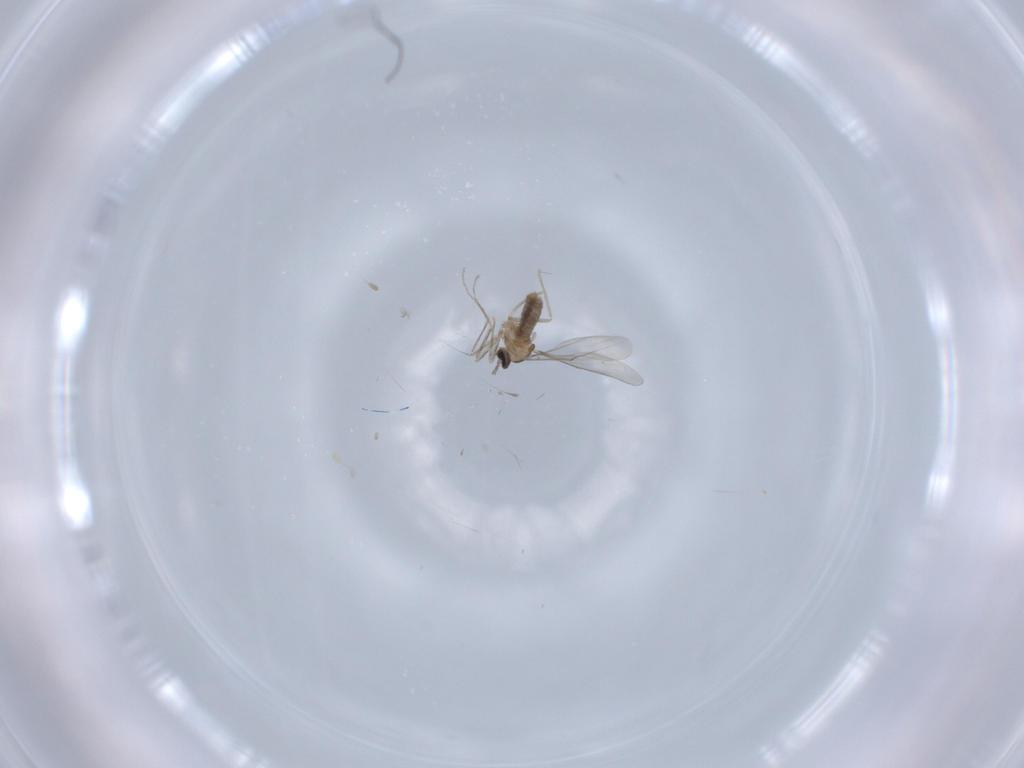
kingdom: Animalia
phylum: Arthropoda
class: Insecta
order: Diptera
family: Cecidomyiidae
